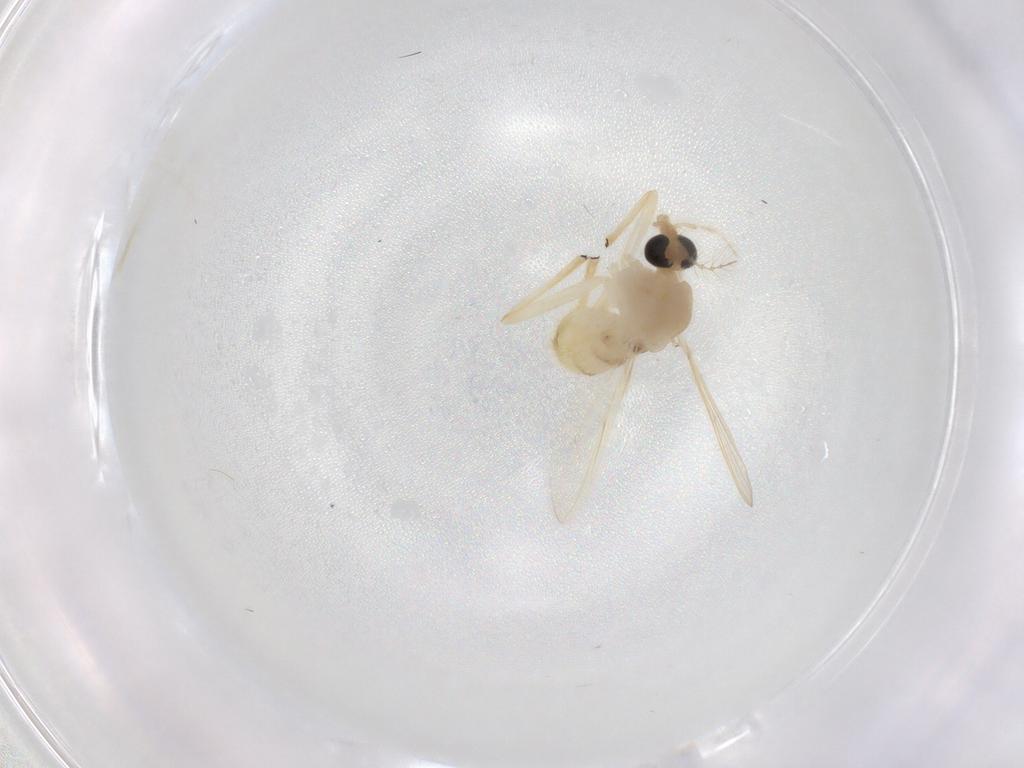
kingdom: Animalia
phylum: Arthropoda
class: Insecta
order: Diptera
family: Chironomidae
